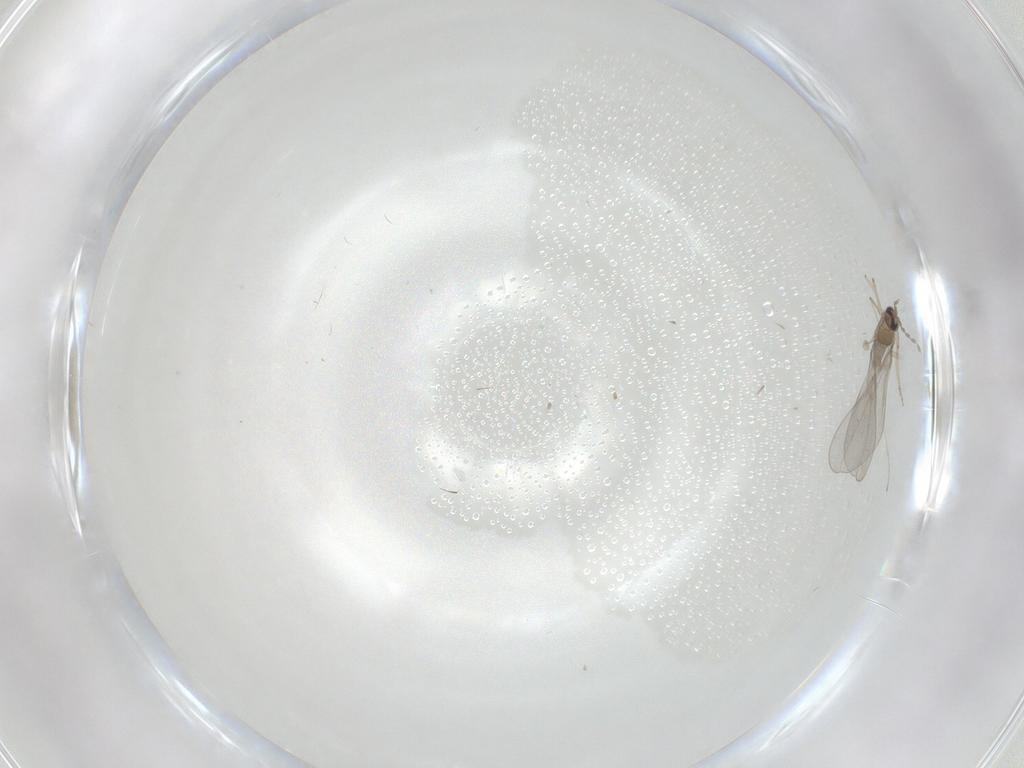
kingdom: Animalia
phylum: Arthropoda
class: Insecta
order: Diptera
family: Cecidomyiidae
